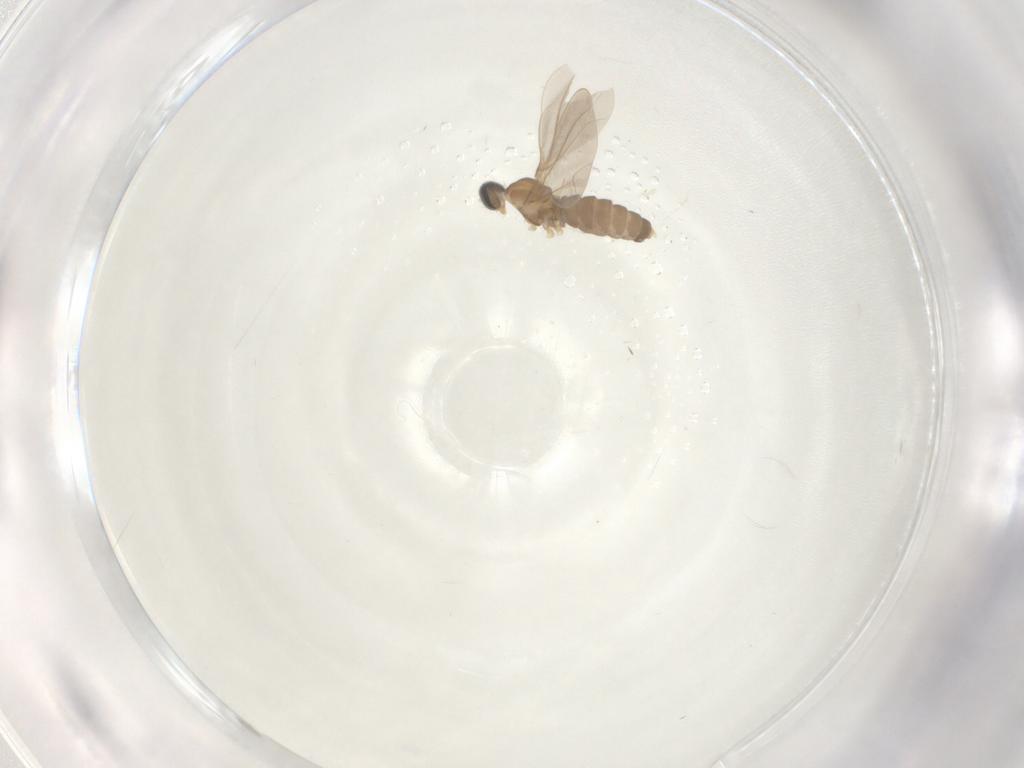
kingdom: Animalia
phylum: Arthropoda
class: Insecta
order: Diptera
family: Cecidomyiidae
